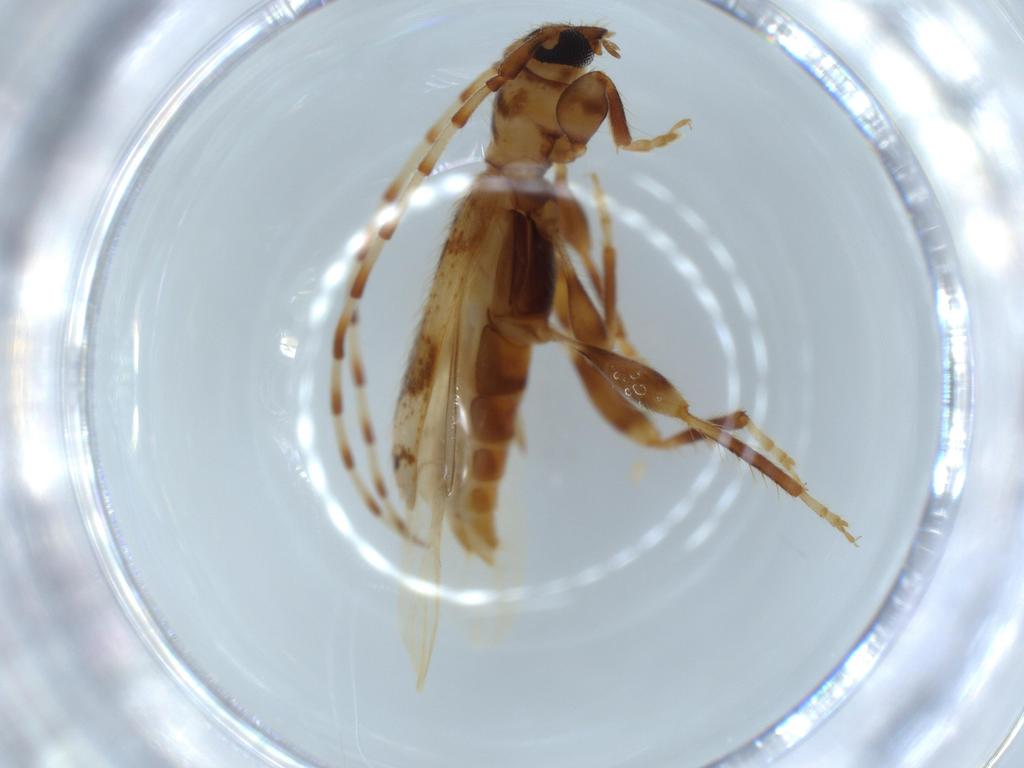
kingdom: Animalia
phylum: Arthropoda
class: Insecta
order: Coleoptera
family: Cerambycidae
